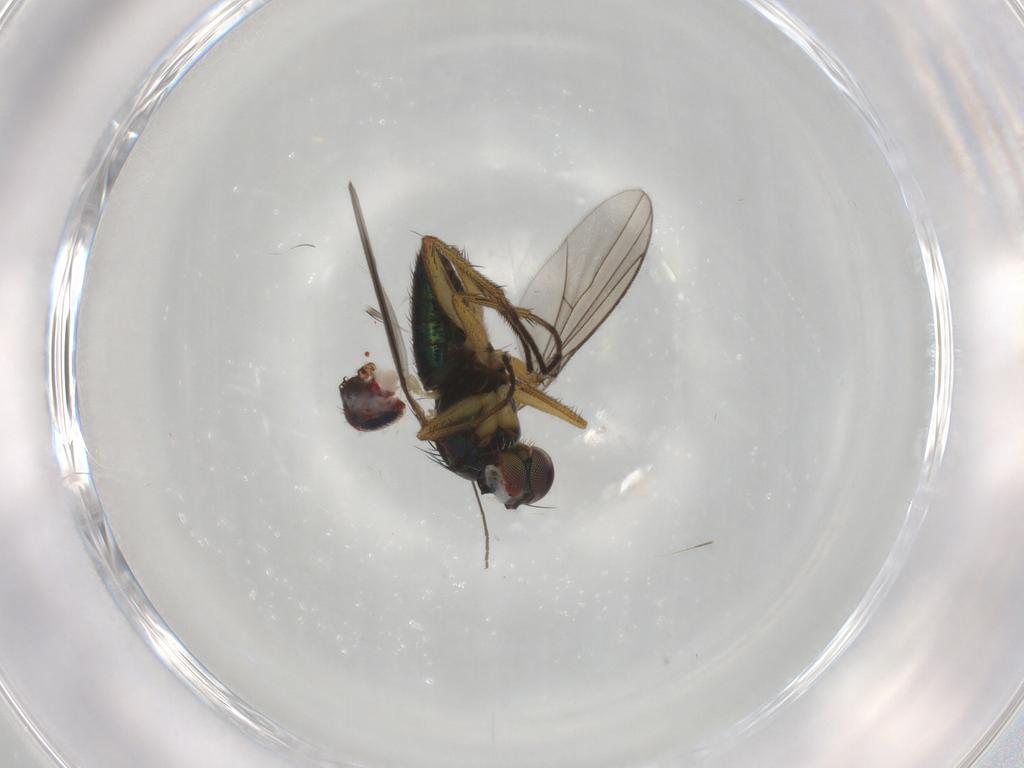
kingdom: Animalia
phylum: Arthropoda
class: Insecta
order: Diptera
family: Dolichopodidae
